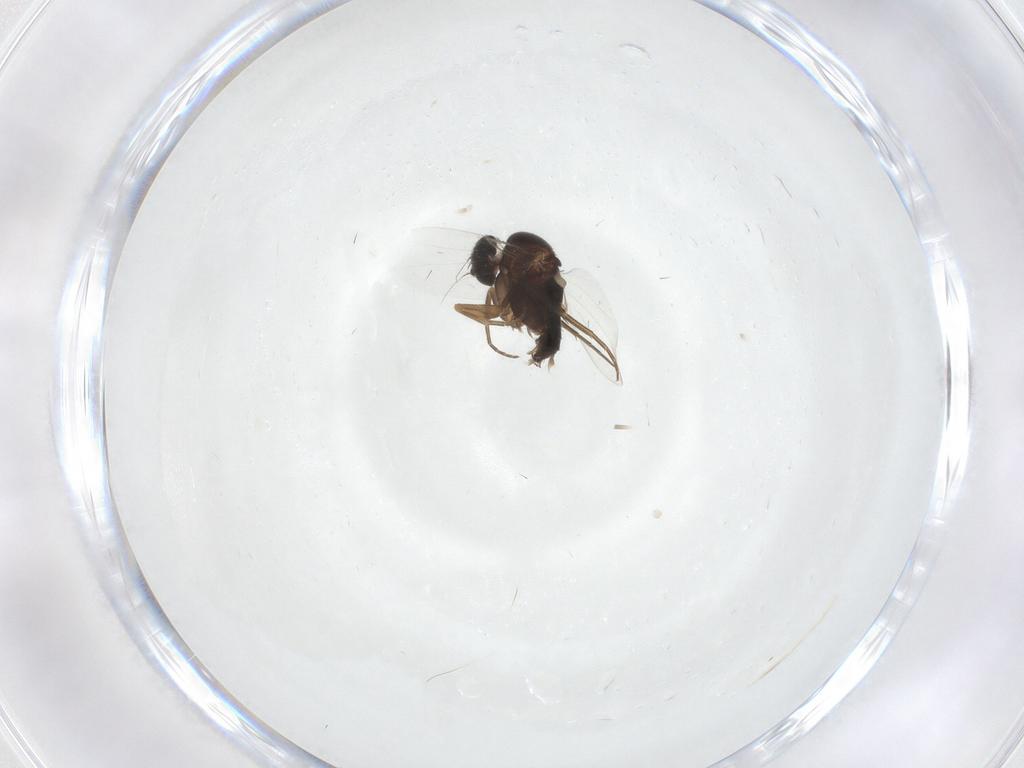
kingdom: Animalia
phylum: Arthropoda
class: Insecta
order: Diptera
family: Phoridae
